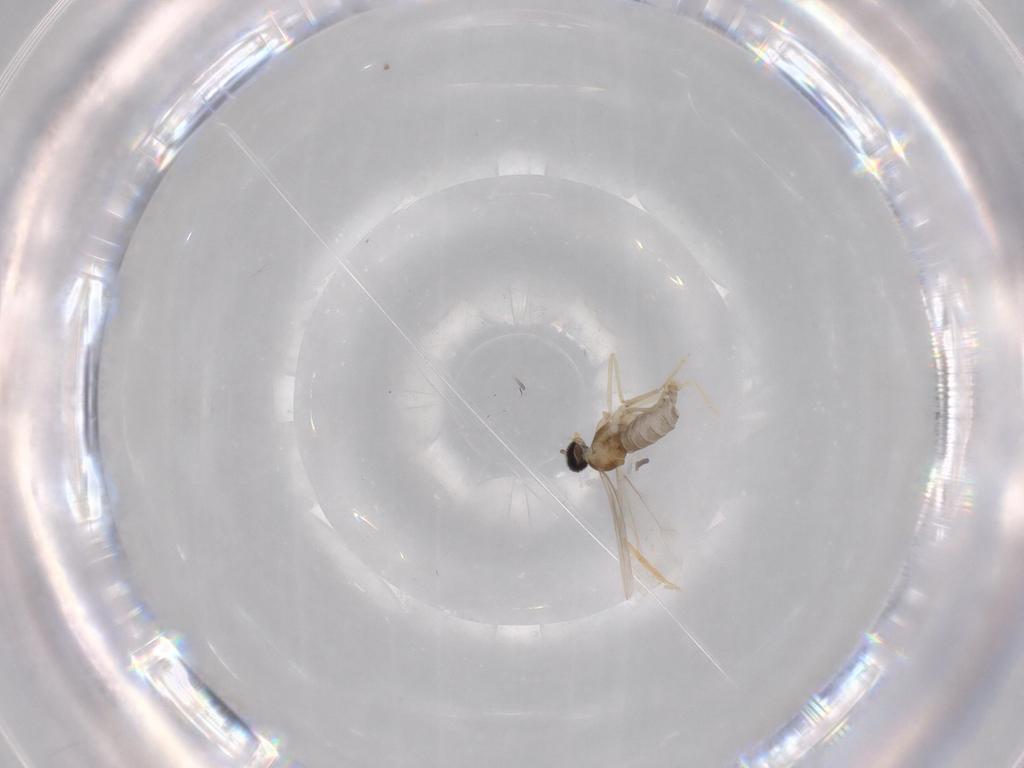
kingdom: Animalia
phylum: Arthropoda
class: Insecta
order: Diptera
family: Cecidomyiidae
